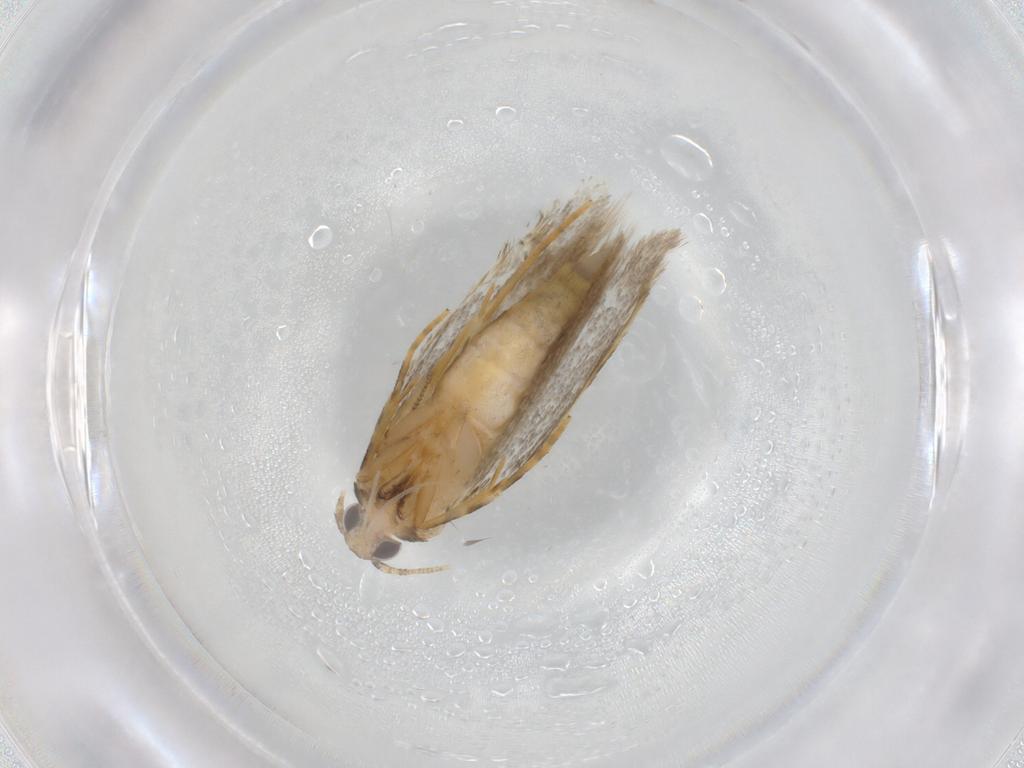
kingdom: Animalia
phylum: Arthropoda
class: Insecta
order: Lepidoptera
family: Autostichidae
